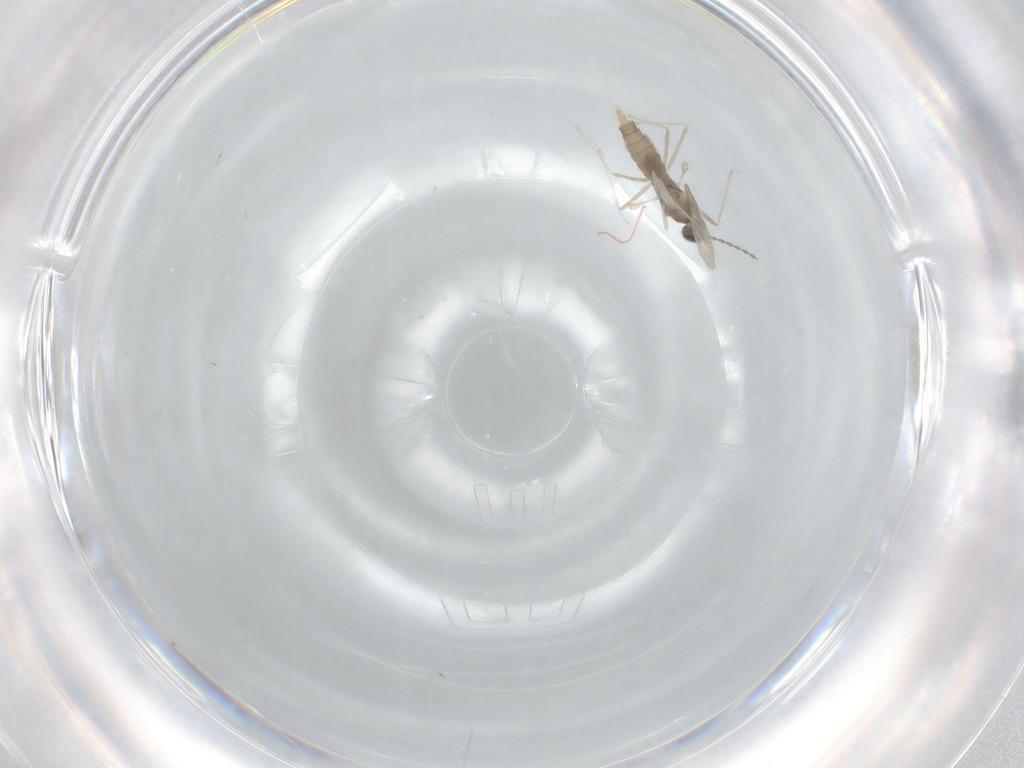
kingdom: Animalia
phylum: Arthropoda
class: Insecta
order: Diptera
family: Cecidomyiidae
